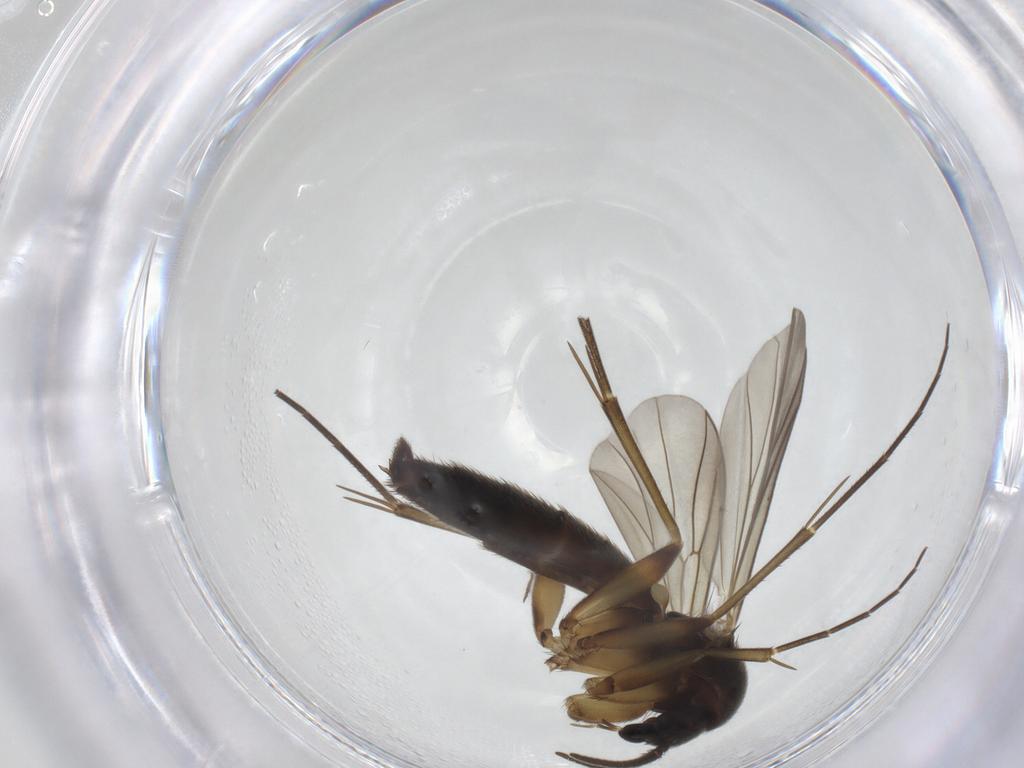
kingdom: Animalia
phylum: Arthropoda
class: Insecta
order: Diptera
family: Mycetophilidae
